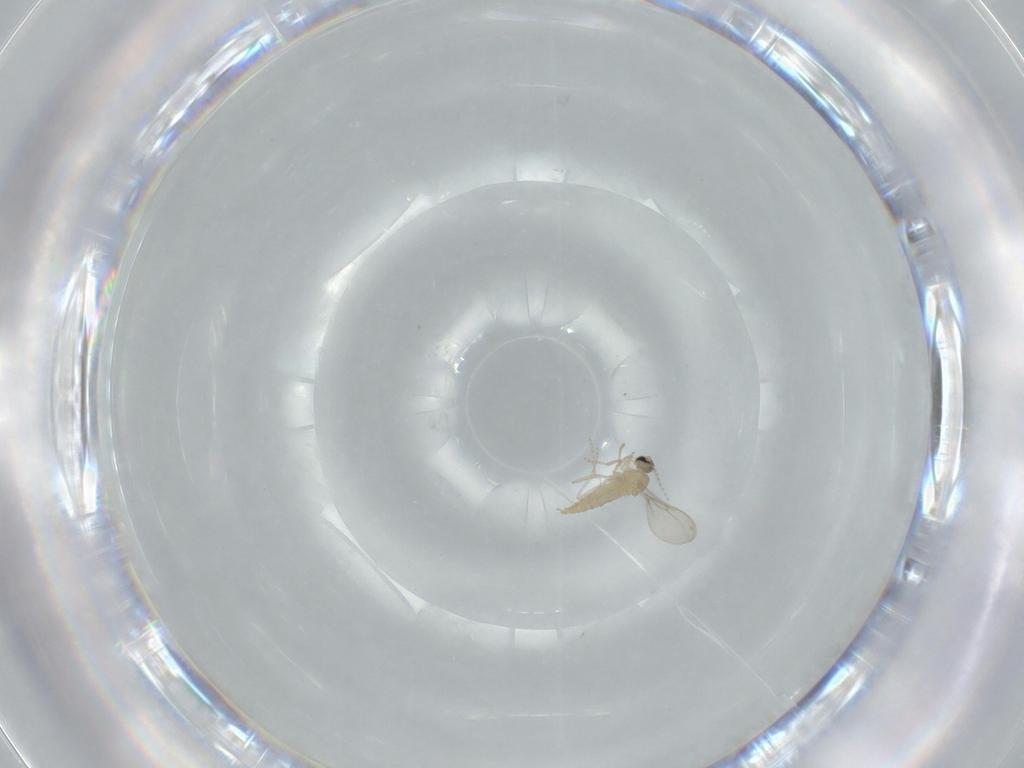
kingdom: Animalia
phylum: Arthropoda
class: Insecta
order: Diptera
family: Cecidomyiidae
